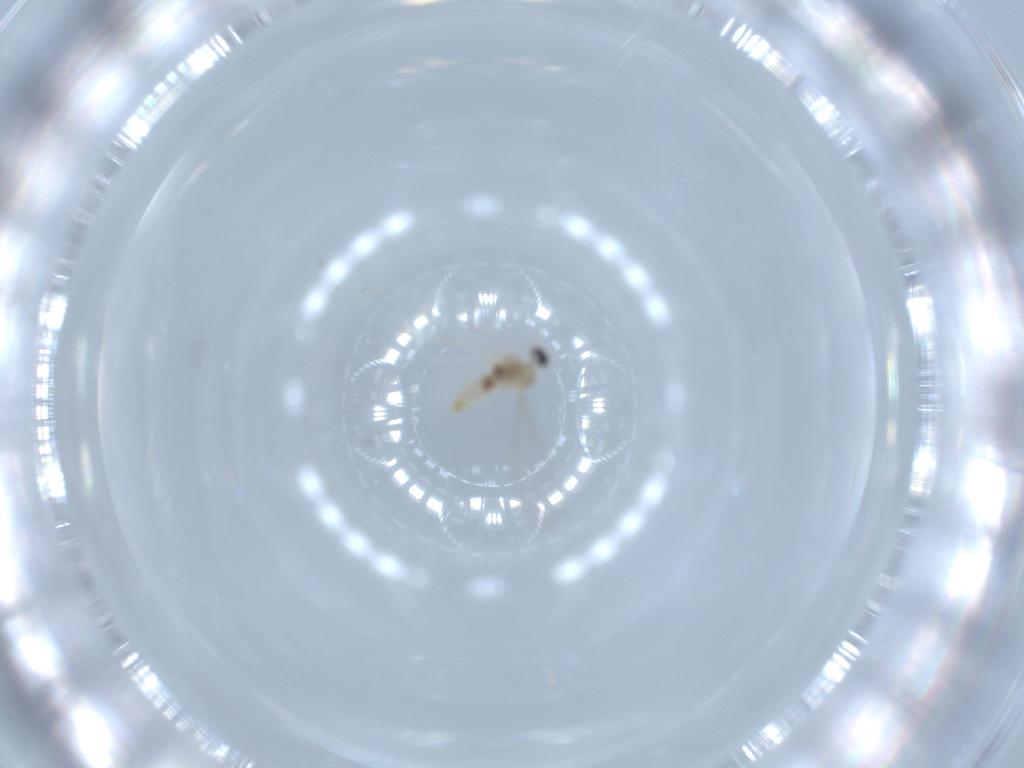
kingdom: Animalia
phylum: Arthropoda
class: Insecta
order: Diptera
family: Cecidomyiidae
